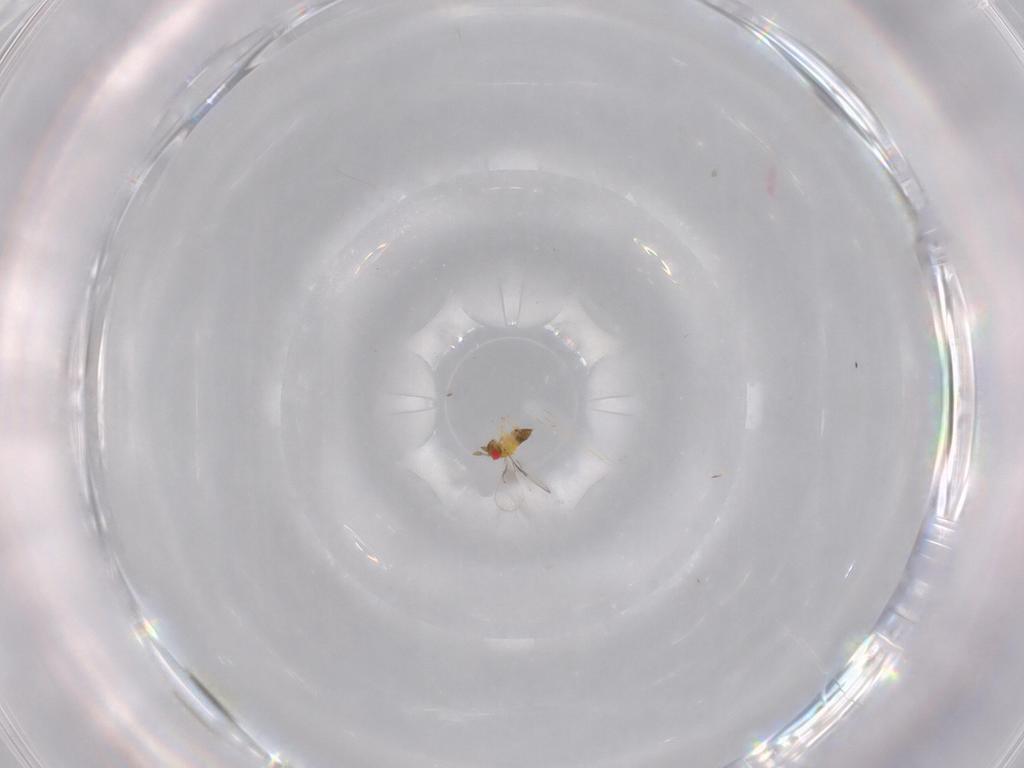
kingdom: Animalia
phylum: Arthropoda
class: Insecta
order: Hymenoptera
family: Trichogrammatidae
